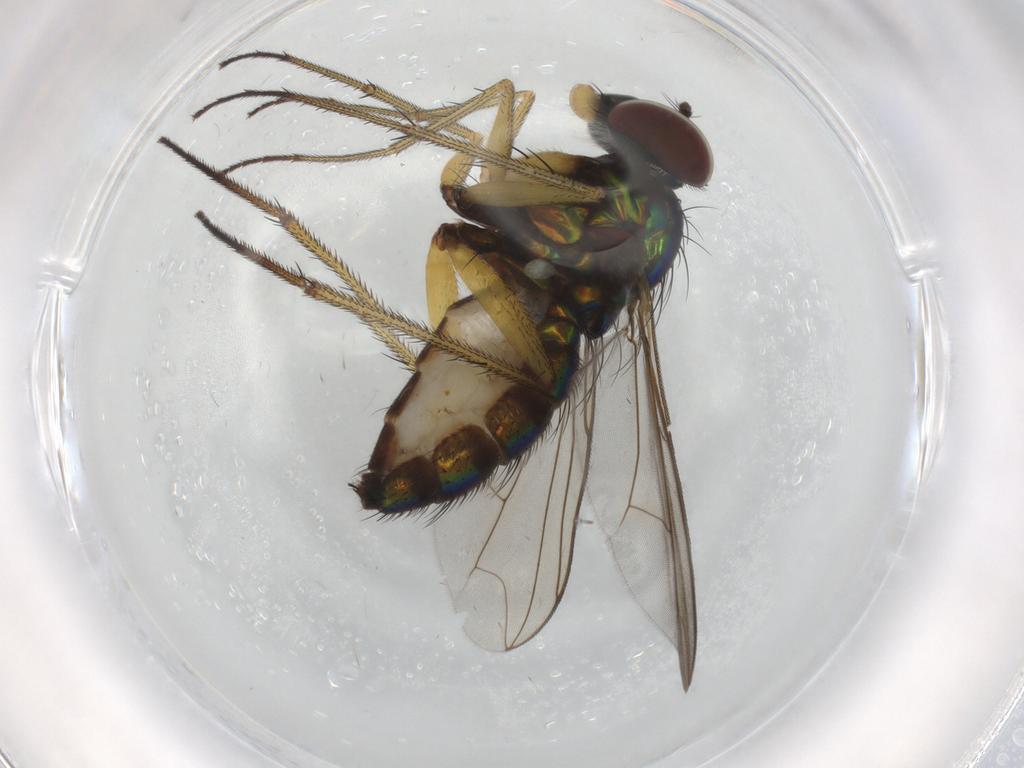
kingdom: Animalia
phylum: Arthropoda
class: Insecta
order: Diptera
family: Dolichopodidae
